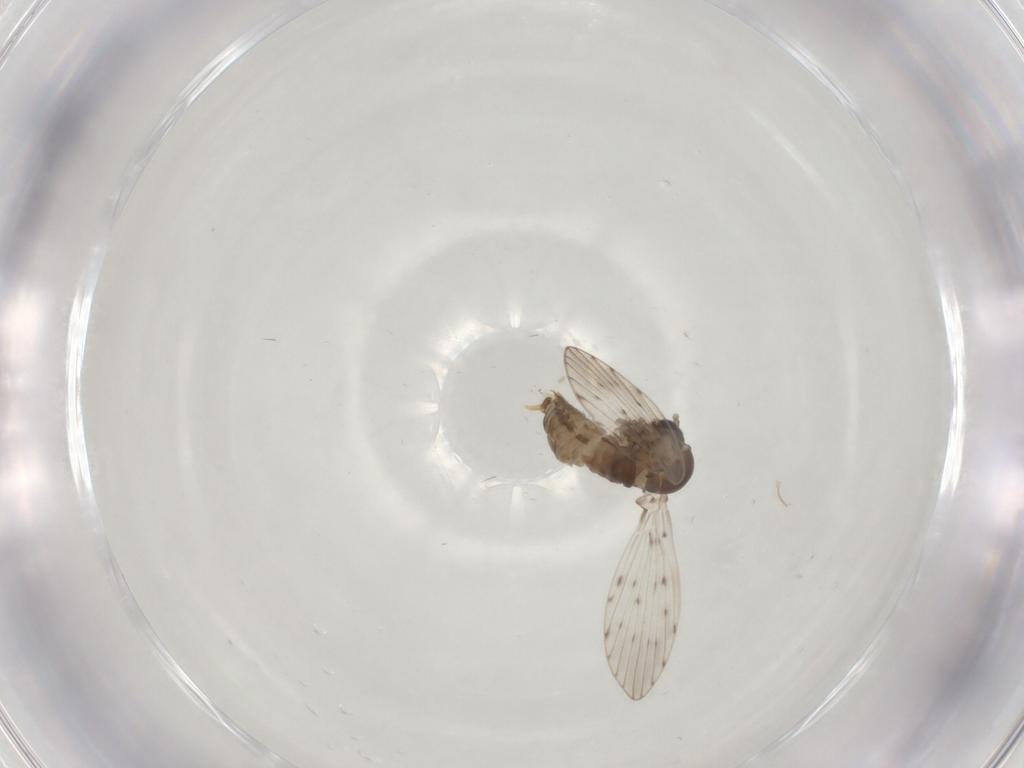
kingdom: Animalia
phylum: Arthropoda
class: Insecta
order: Diptera
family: Psychodidae
